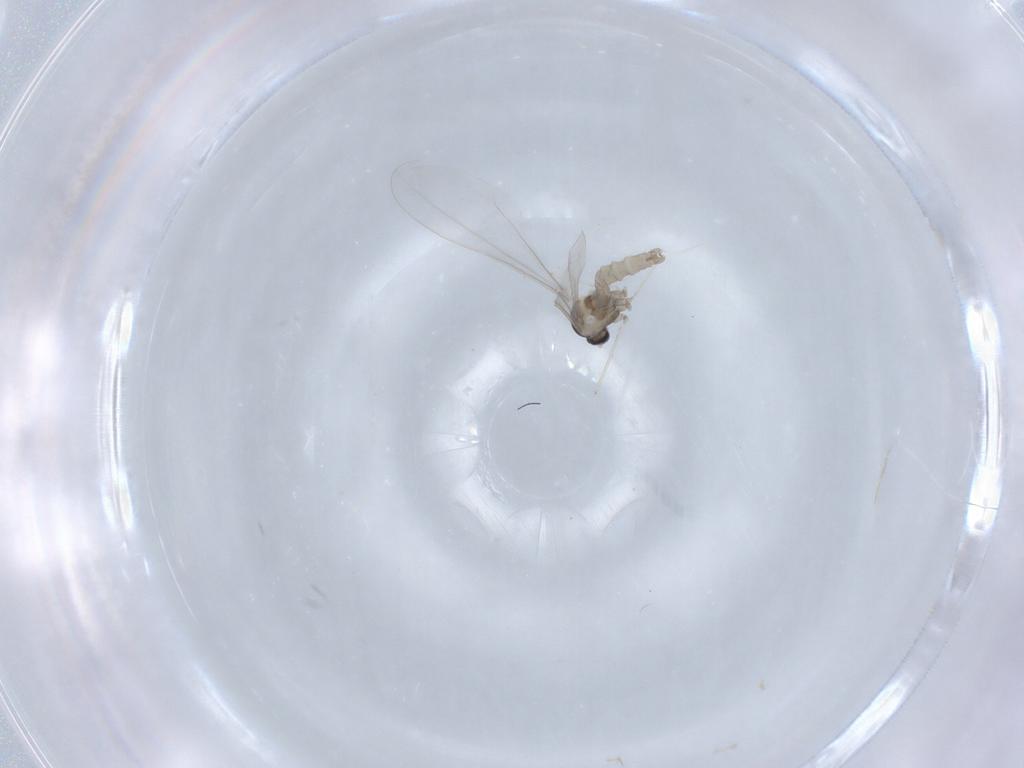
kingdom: Animalia
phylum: Arthropoda
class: Insecta
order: Diptera
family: Cecidomyiidae
